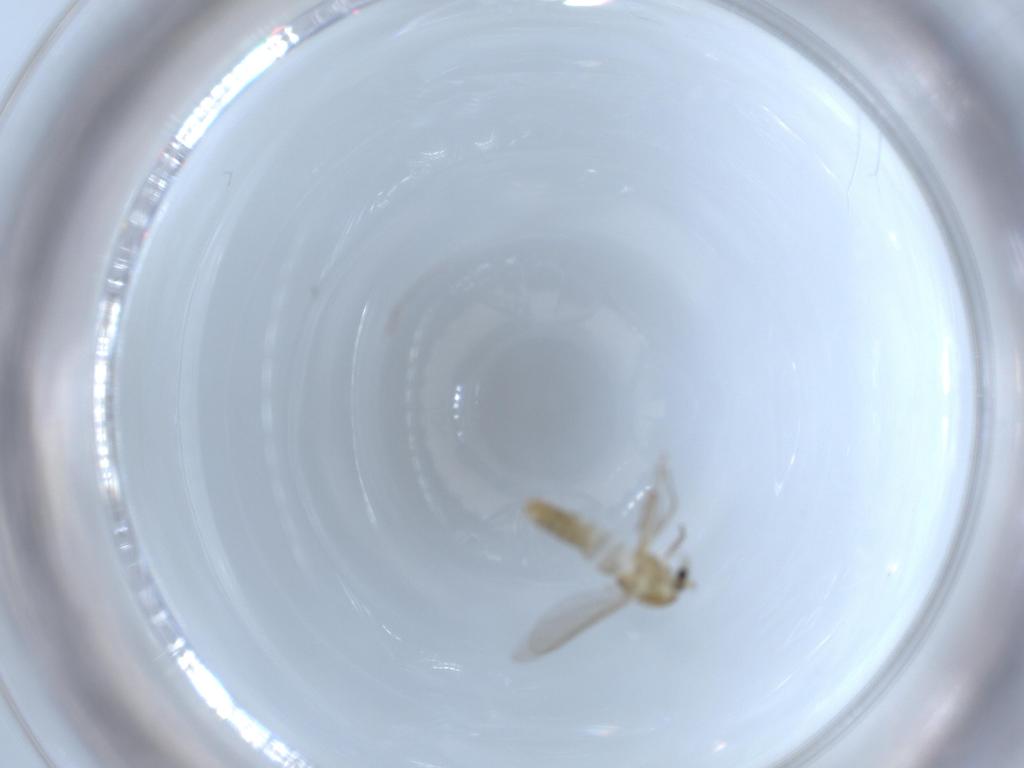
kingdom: Animalia
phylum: Arthropoda
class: Insecta
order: Diptera
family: Chironomidae
